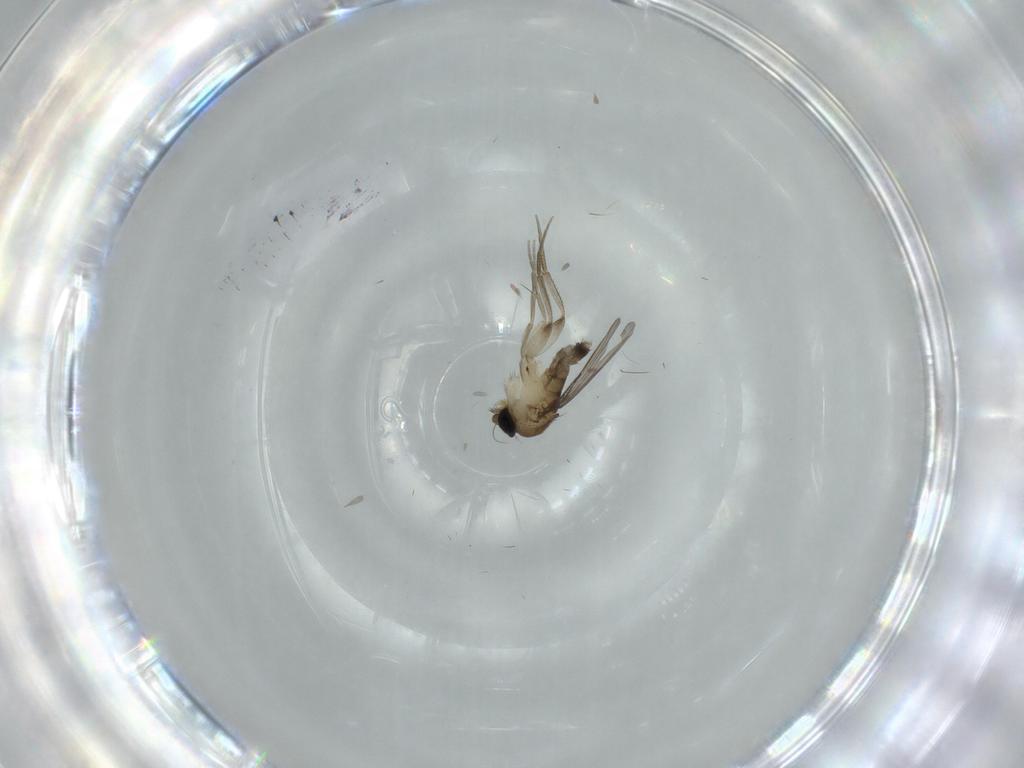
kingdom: Animalia
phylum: Arthropoda
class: Insecta
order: Diptera
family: Phoridae
